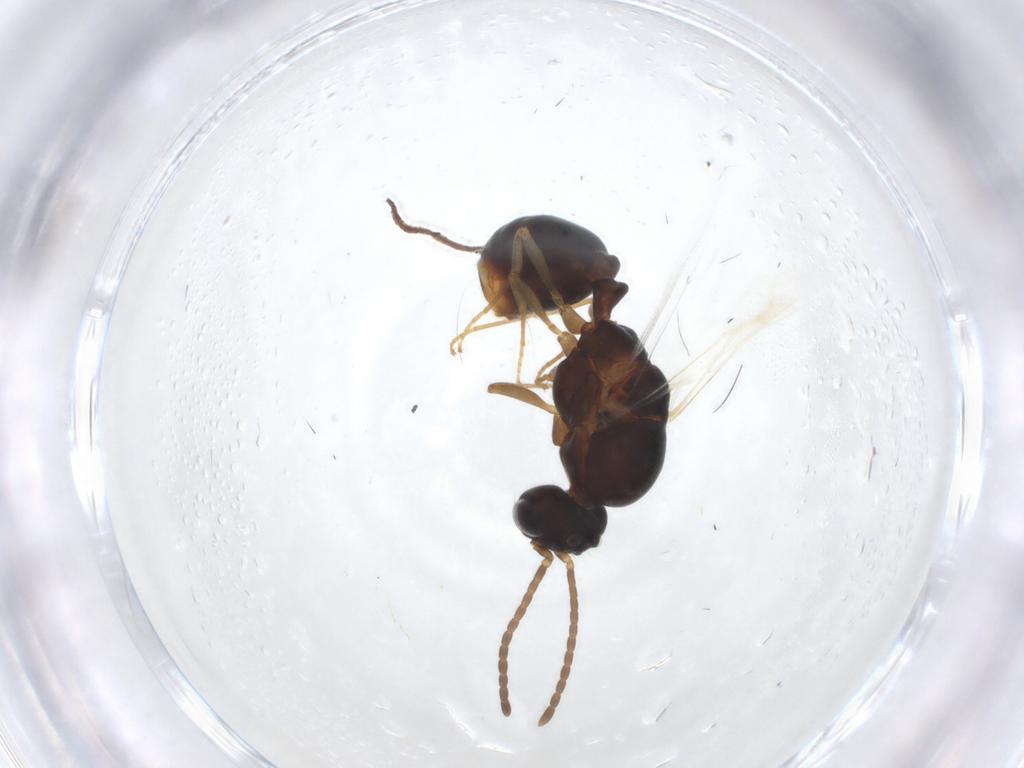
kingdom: Animalia
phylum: Arthropoda
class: Insecta
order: Hymenoptera
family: Formicidae
